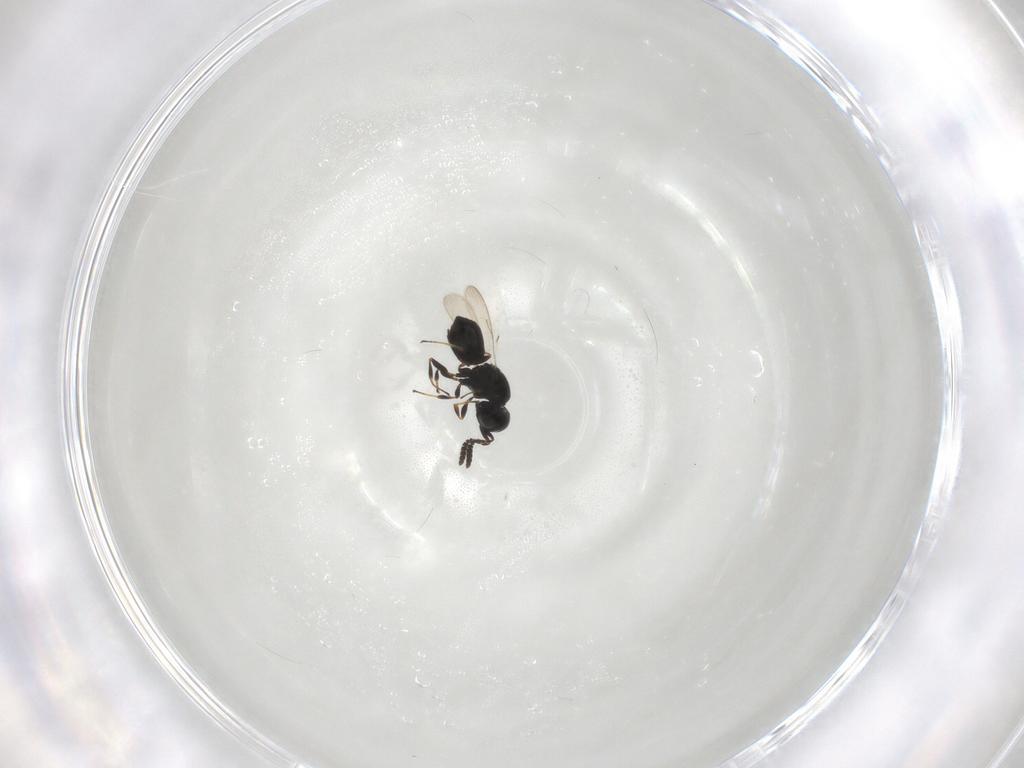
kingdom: Animalia
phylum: Arthropoda
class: Insecta
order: Hymenoptera
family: Scelionidae
